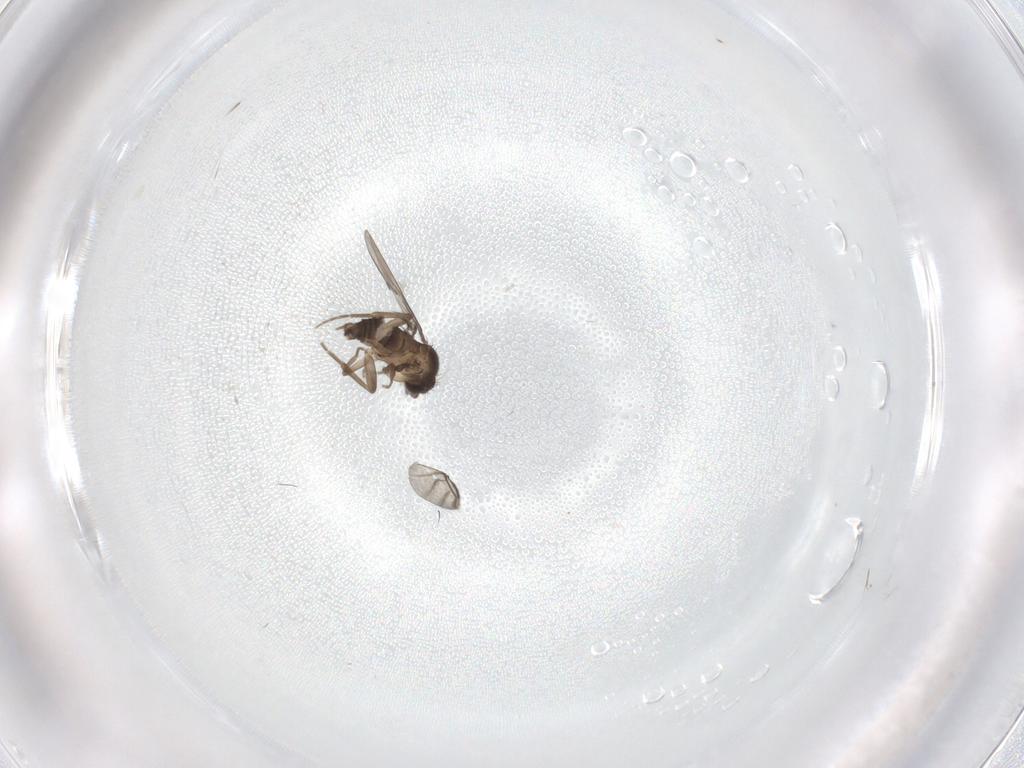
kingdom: Animalia
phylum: Arthropoda
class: Insecta
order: Diptera
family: Phoridae
